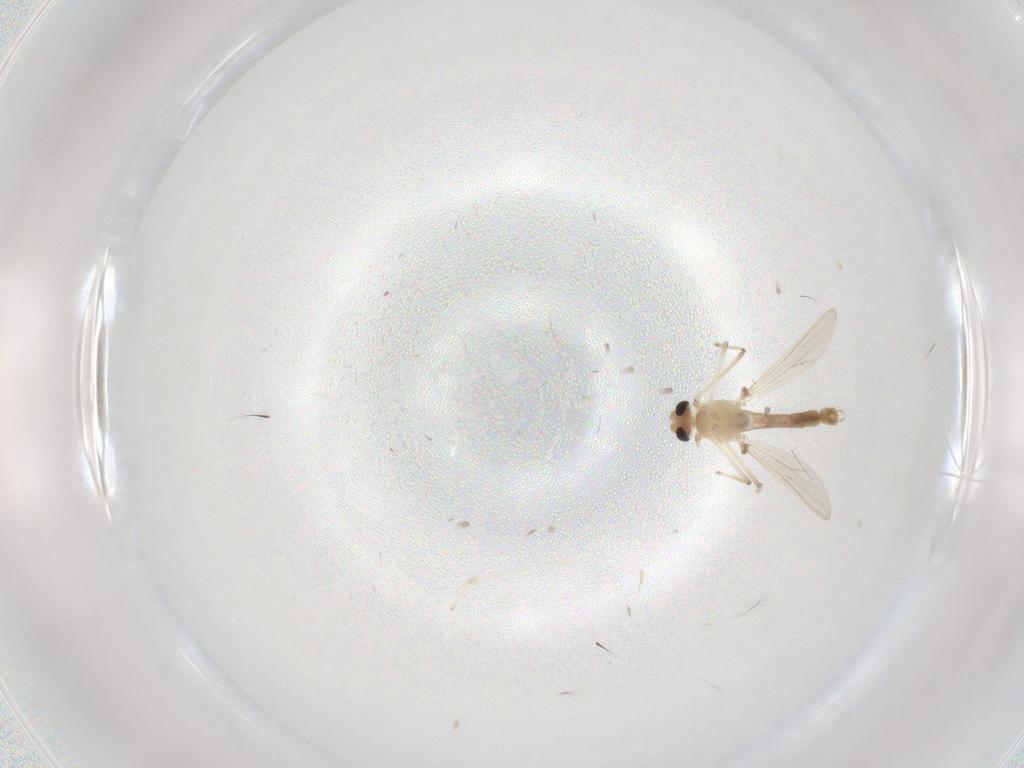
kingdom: Animalia
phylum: Arthropoda
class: Insecta
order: Diptera
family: Chironomidae
